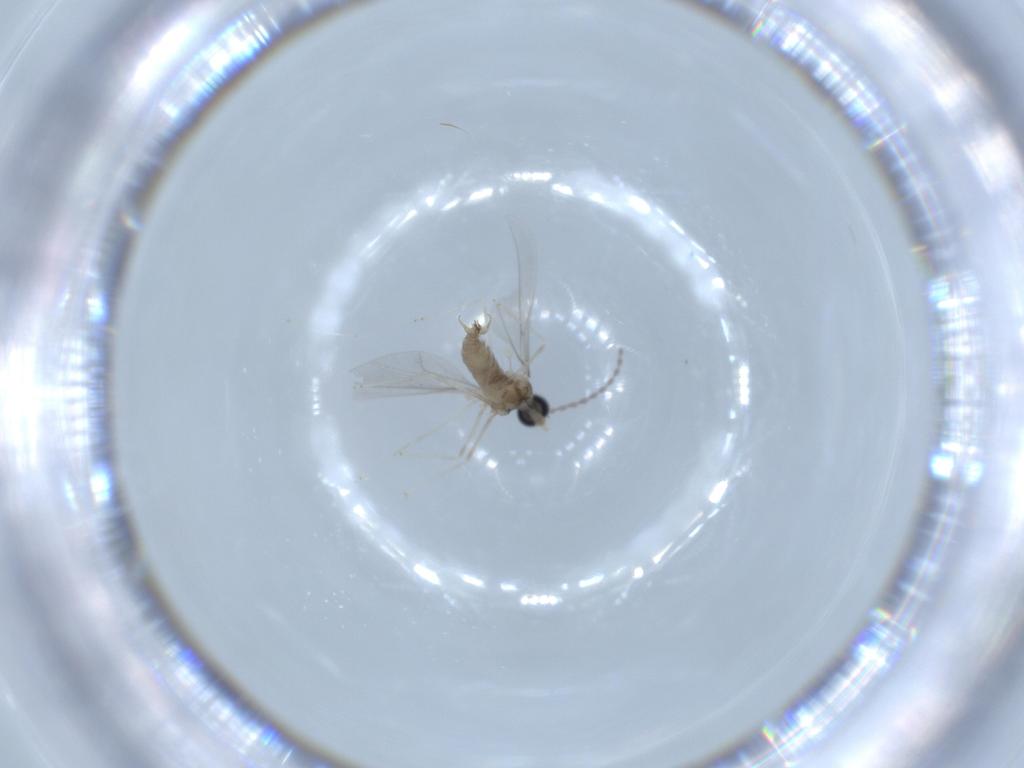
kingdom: Animalia
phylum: Arthropoda
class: Insecta
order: Diptera
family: Cecidomyiidae
